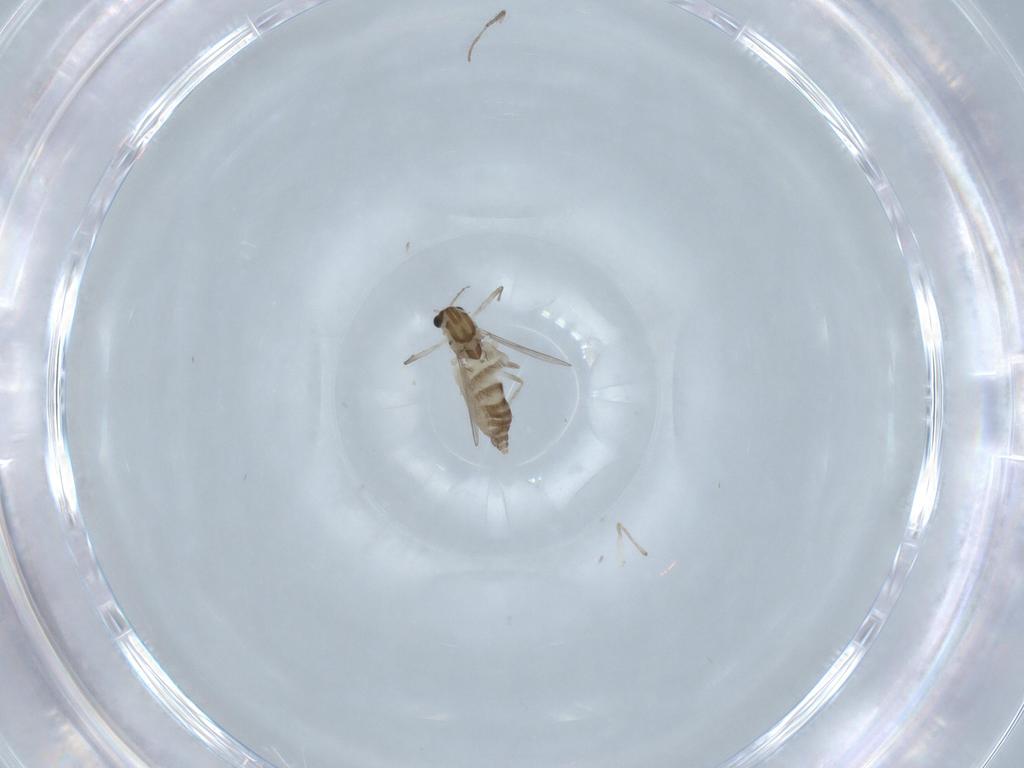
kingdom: Animalia
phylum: Arthropoda
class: Insecta
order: Diptera
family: Chironomidae
